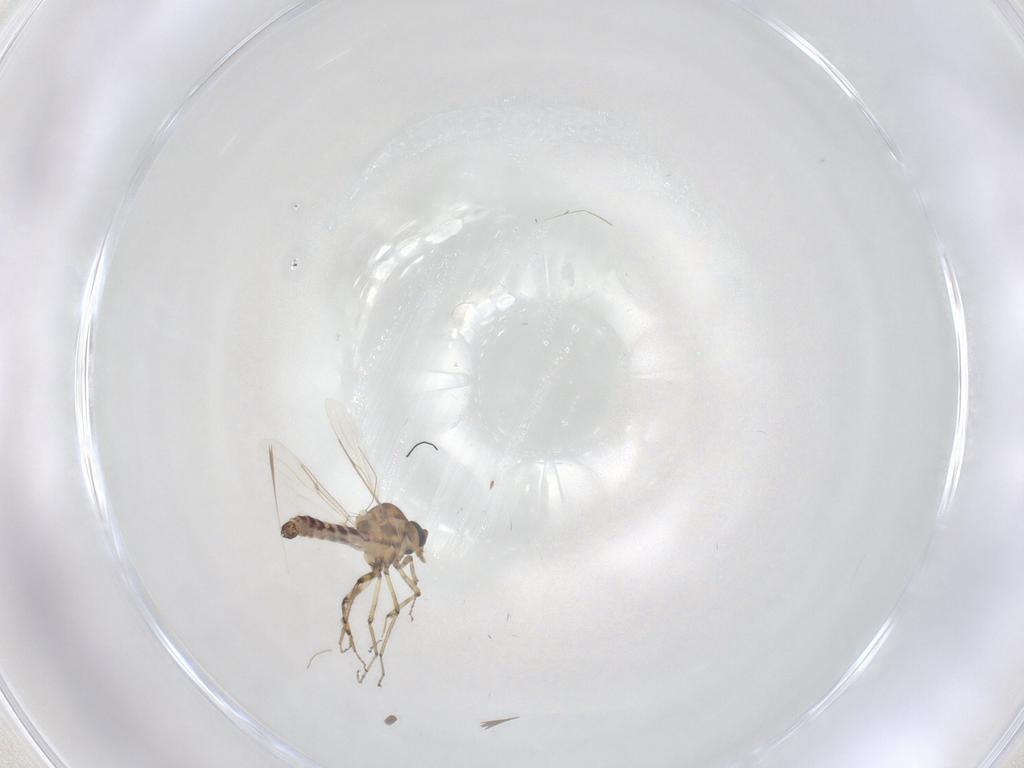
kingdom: Animalia
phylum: Arthropoda
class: Insecta
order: Diptera
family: Ceratopogonidae
